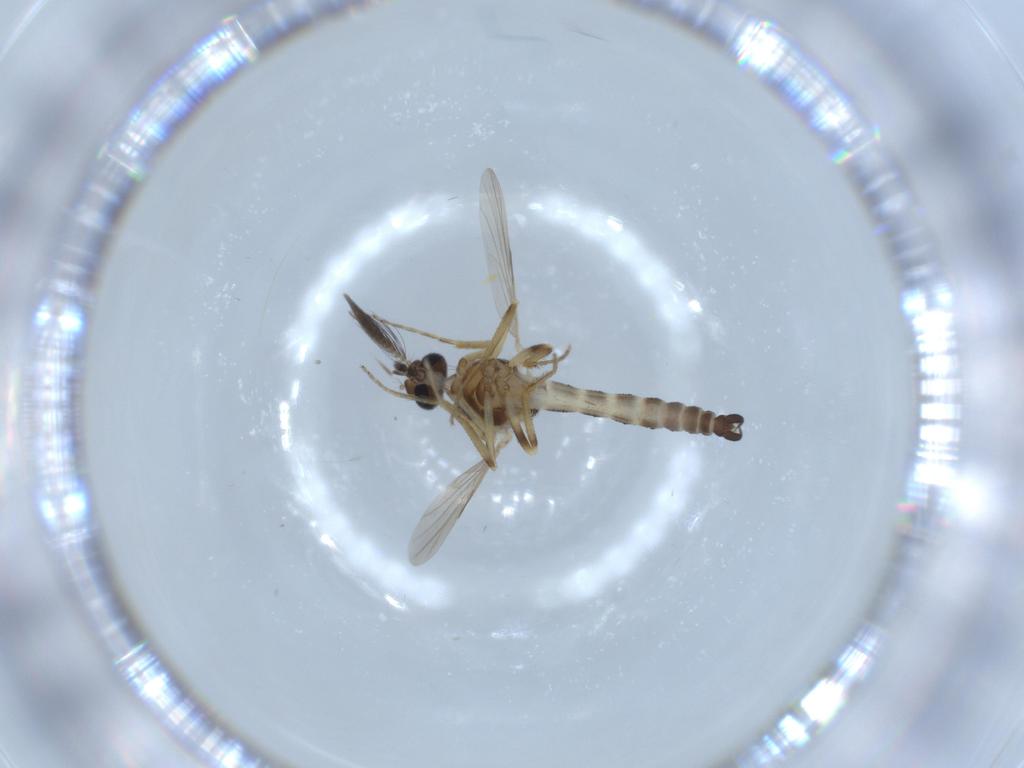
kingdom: Animalia
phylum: Arthropoda
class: Insecta
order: Diptera
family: Ceratopogonidae
